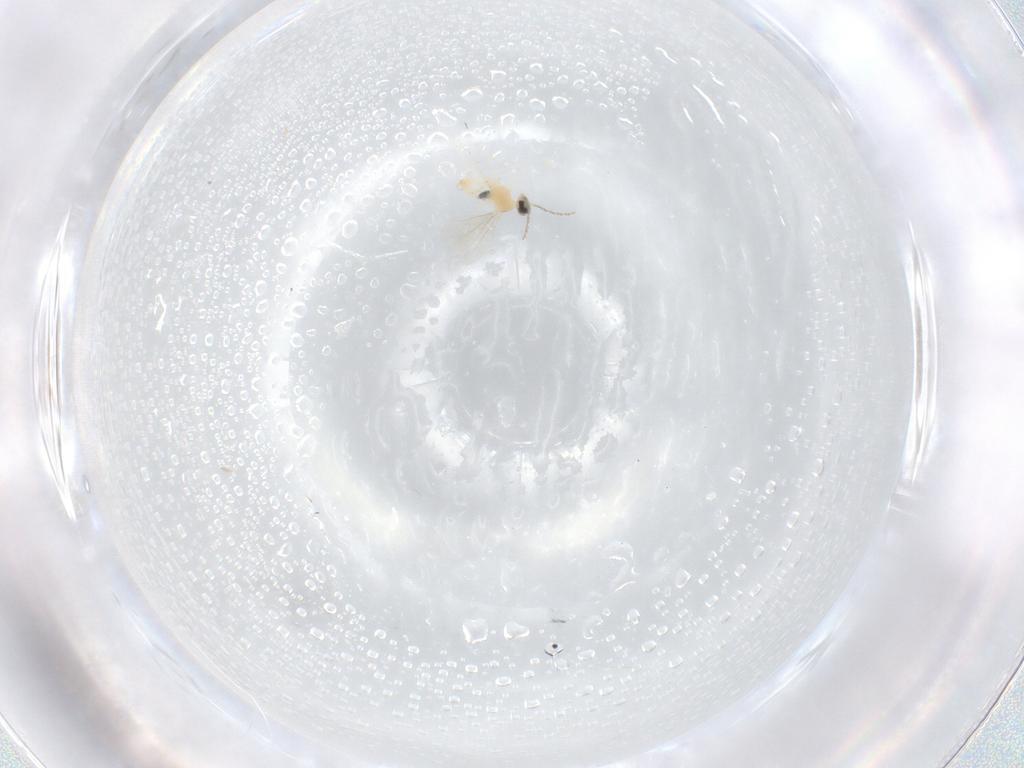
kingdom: Animalia
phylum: Arthropoda
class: Insecta
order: Diptera
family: Cecidomyiidae
